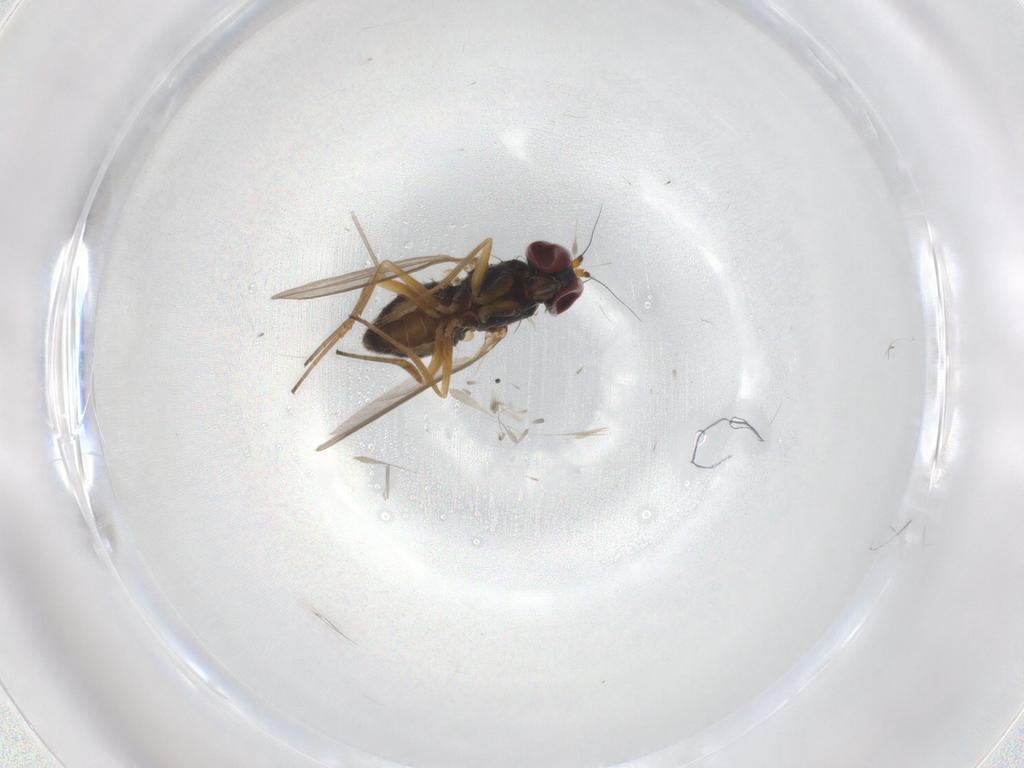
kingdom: Animalia
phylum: Arthropoda
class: Insecta
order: Diptera
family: Cecidomyiidae
